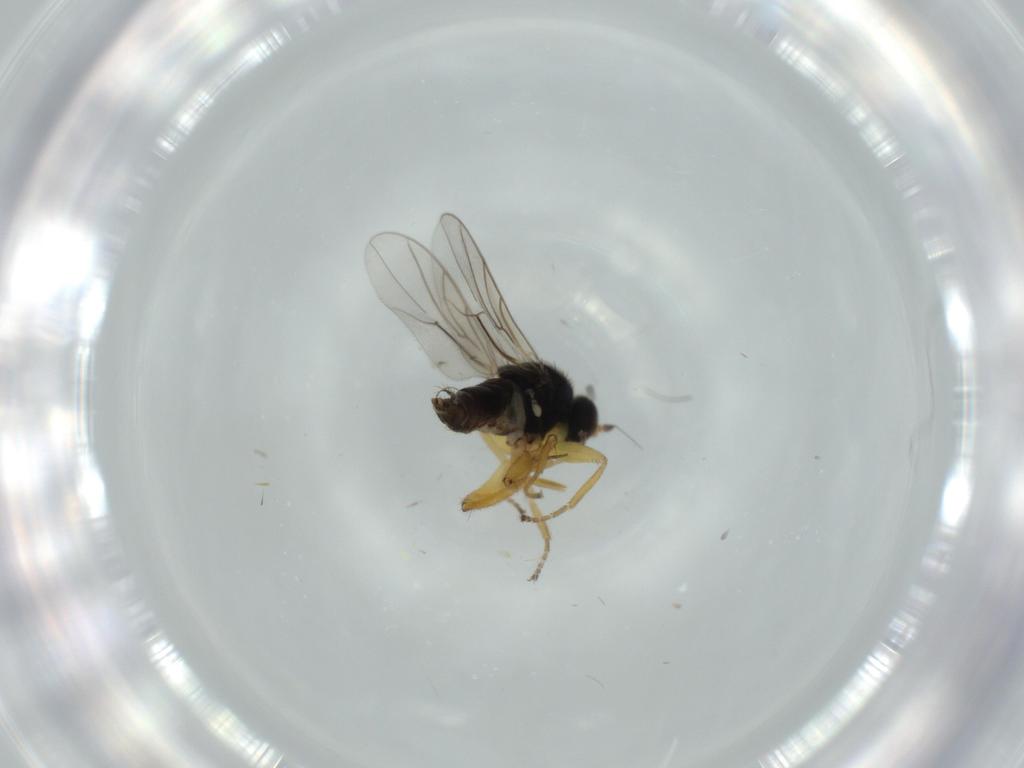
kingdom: Animalia
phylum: Arthropoda
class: Insecta
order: Diptera
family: Hybotidae
